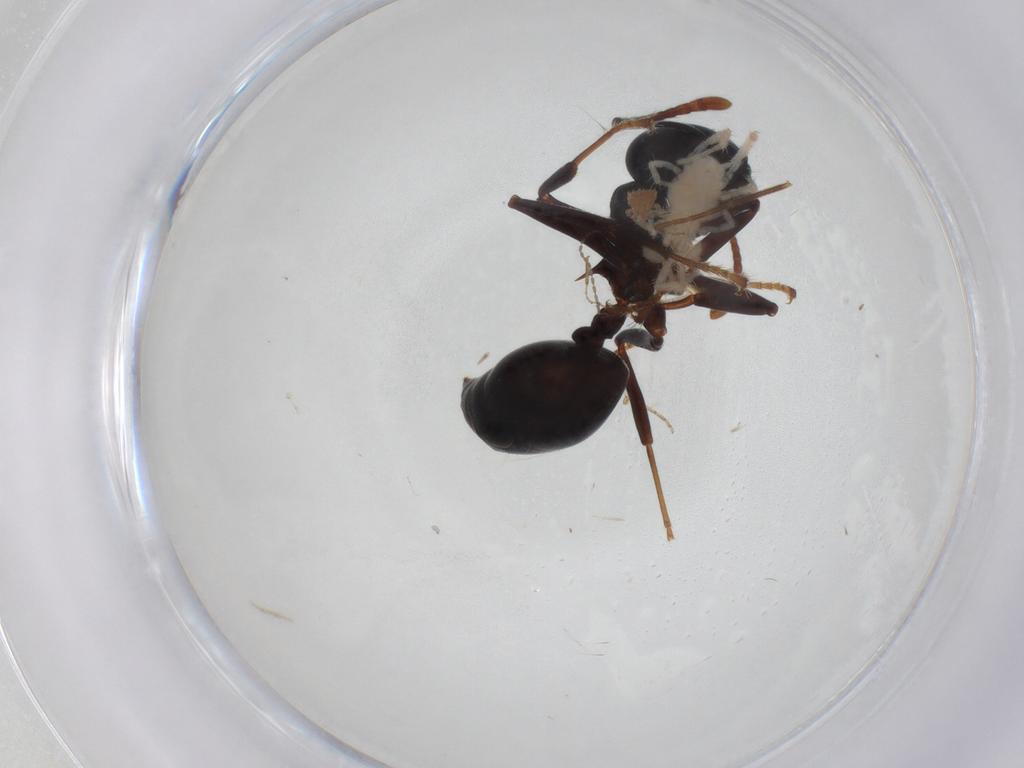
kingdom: Animalia
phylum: Arthropoda
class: Insecta
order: Hymenoptera
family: Formicidae
